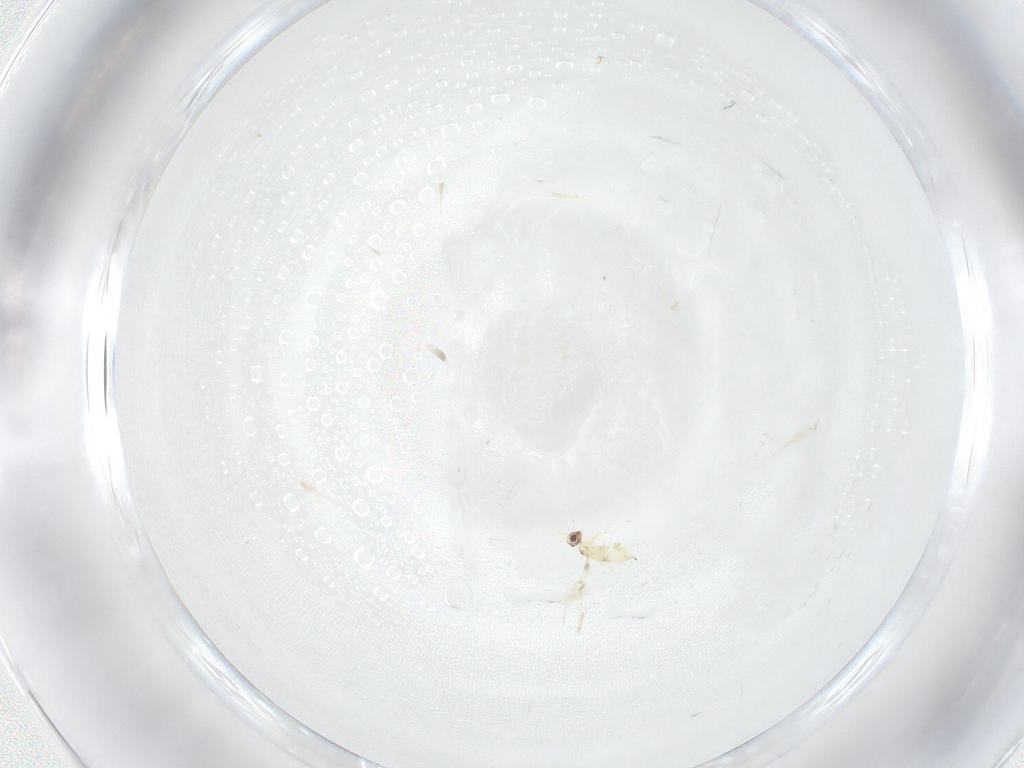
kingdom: Animalia
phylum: Arthropoda
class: Insecta
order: Hymenoptera
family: Mymaridae
